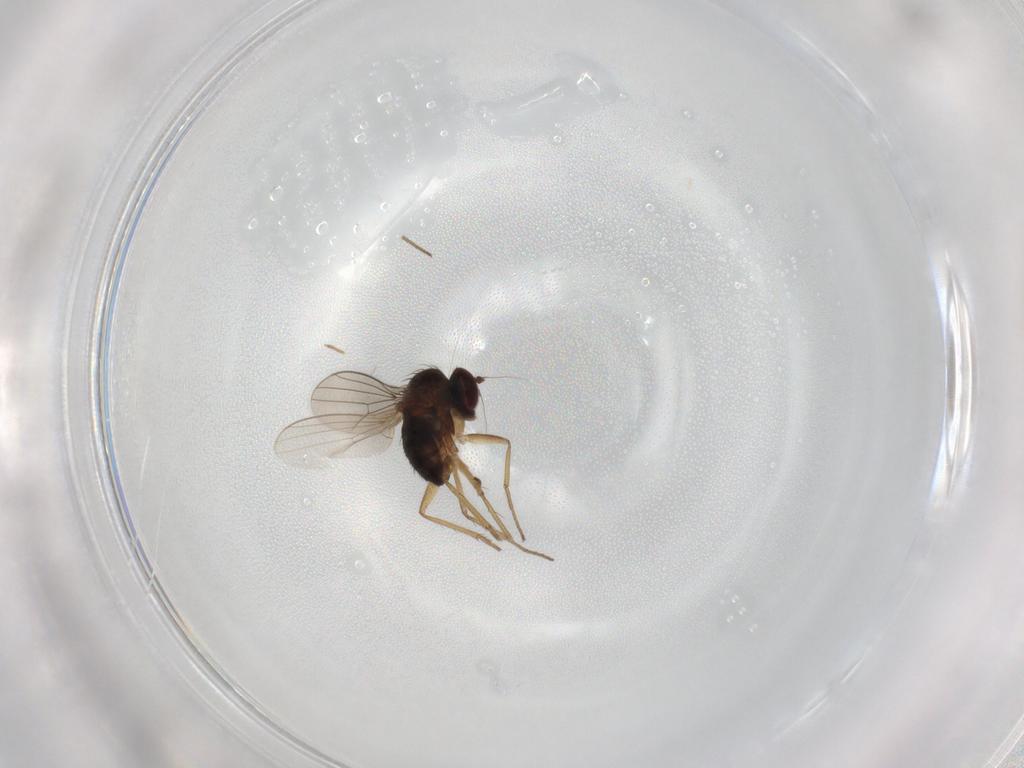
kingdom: Animalia
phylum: Arthropoda
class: Insecta
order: Diptera
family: Dolichopodidae
